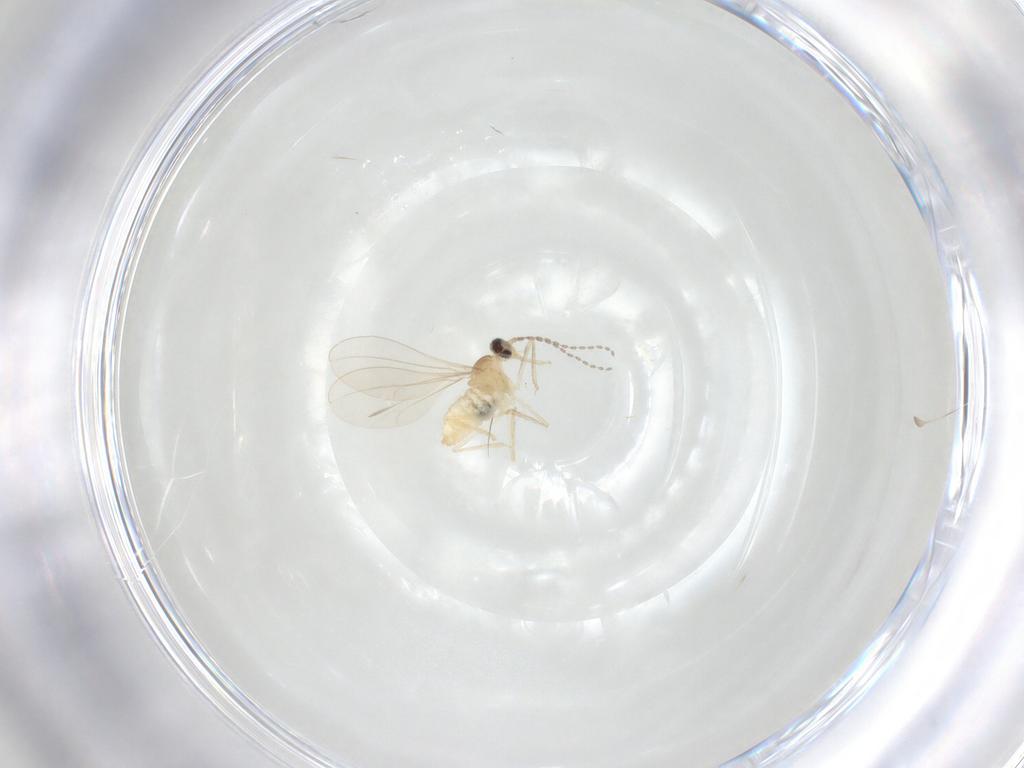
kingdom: Animalia
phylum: Arthropoda
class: Insecta
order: Diptera
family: Cecidomyiidae
